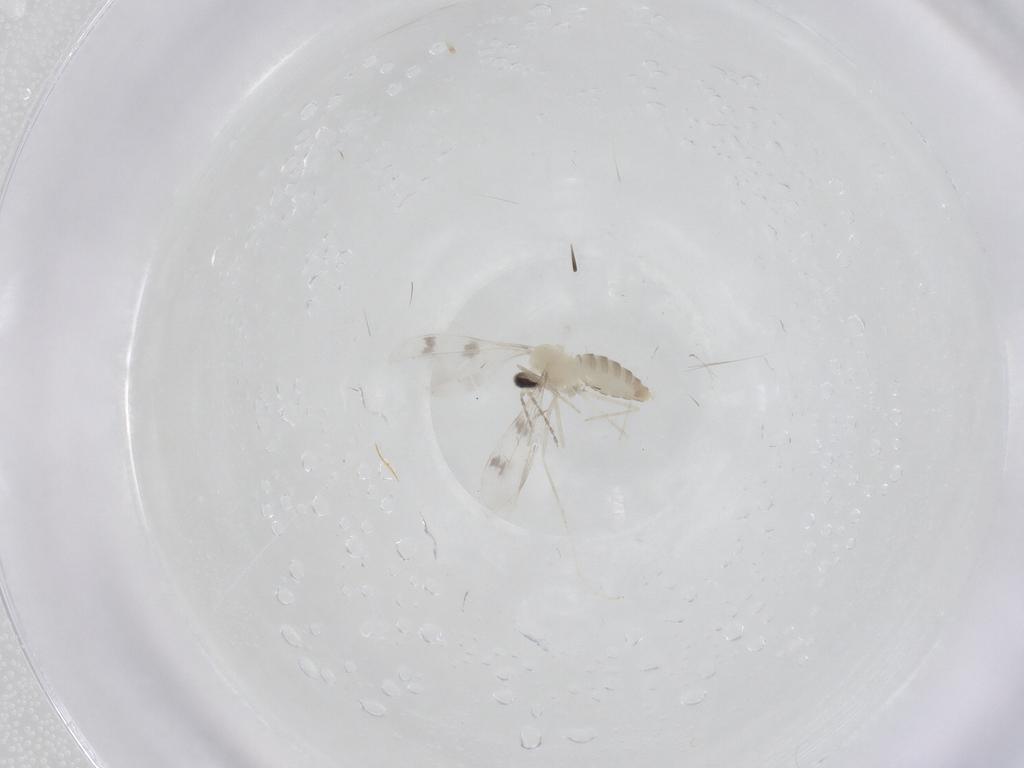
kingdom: Animalia
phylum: Arthropoda
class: Insecta
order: Diptera
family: Cecidomyiidae
